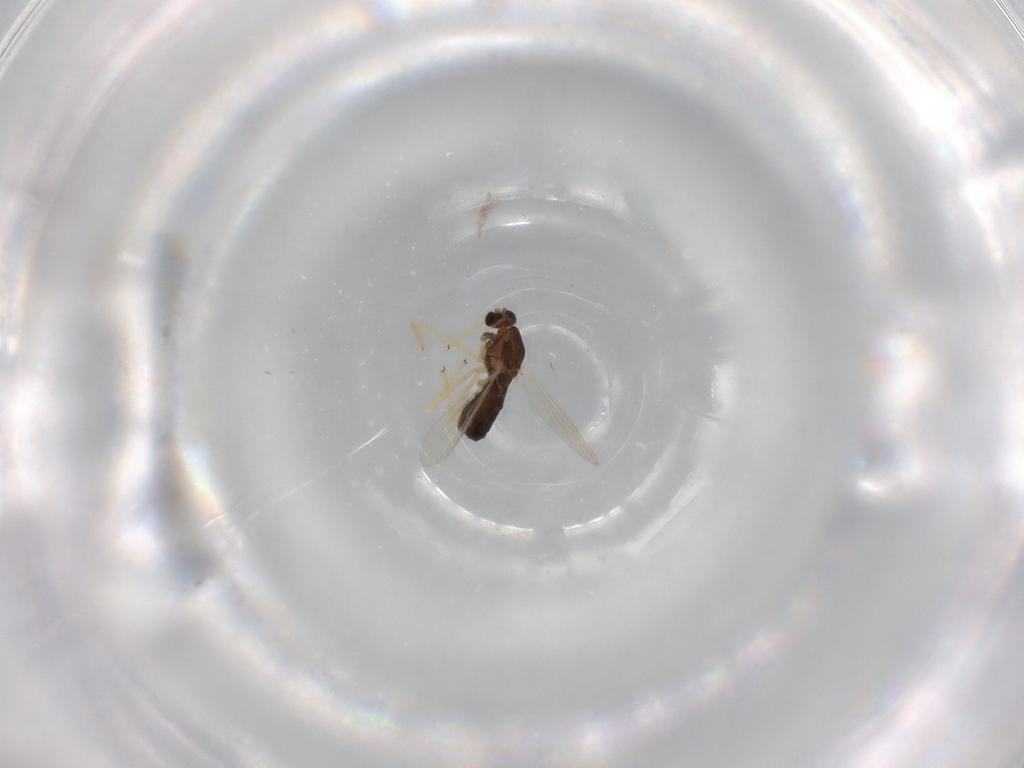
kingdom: Animalia
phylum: Arthropoda
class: Insecta
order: Diptera
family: Chironomidae
